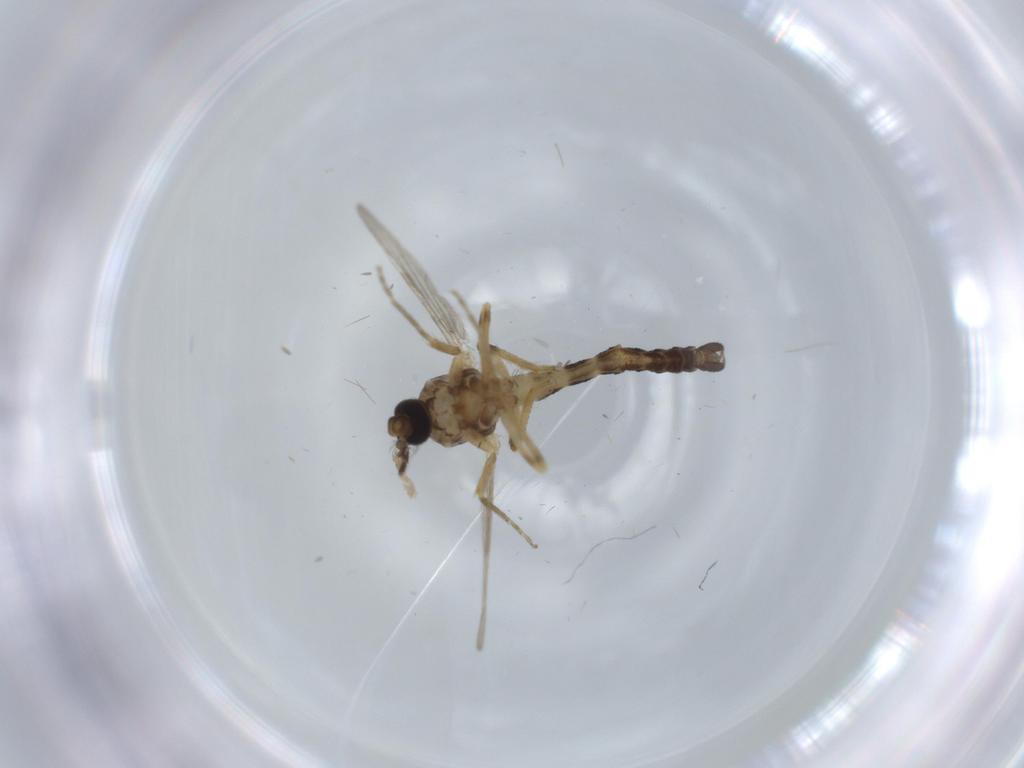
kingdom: Animalia
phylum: Arthropoda
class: Insecta
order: Diptera
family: Ceratopogonidae
